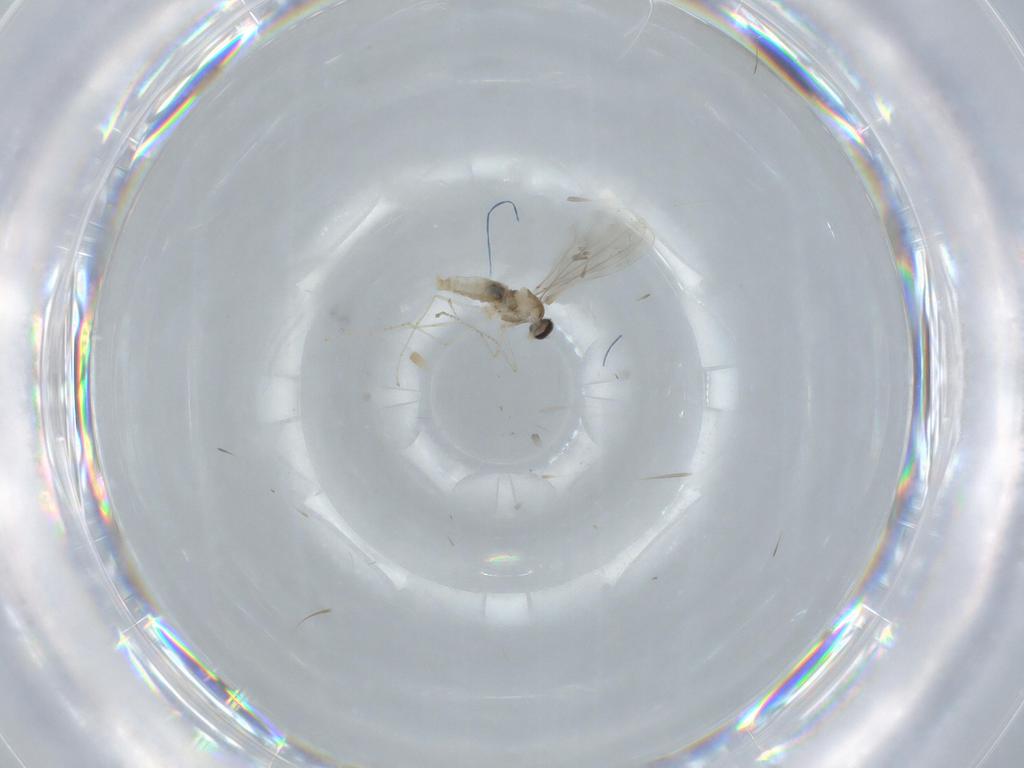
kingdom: Animalia
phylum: Arthropoda
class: Insecta
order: Diptera
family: Cecidomyiidae
